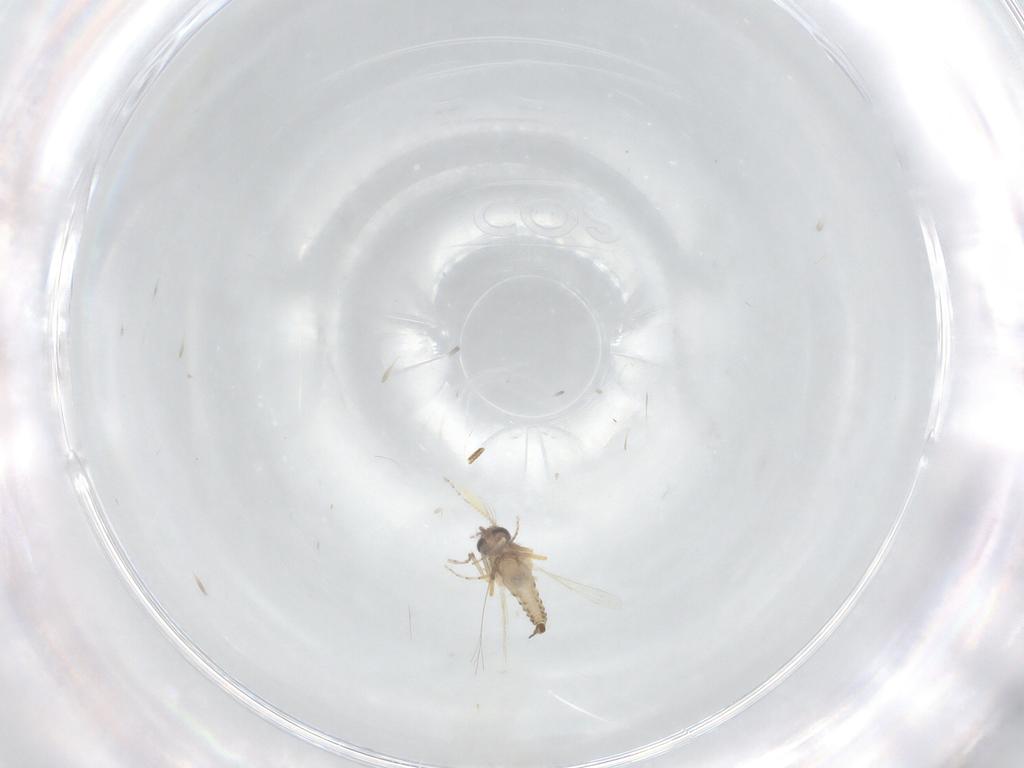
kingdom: Animalia
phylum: Arthropoda
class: Insecta
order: Diptera
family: Ceratopogonidae
